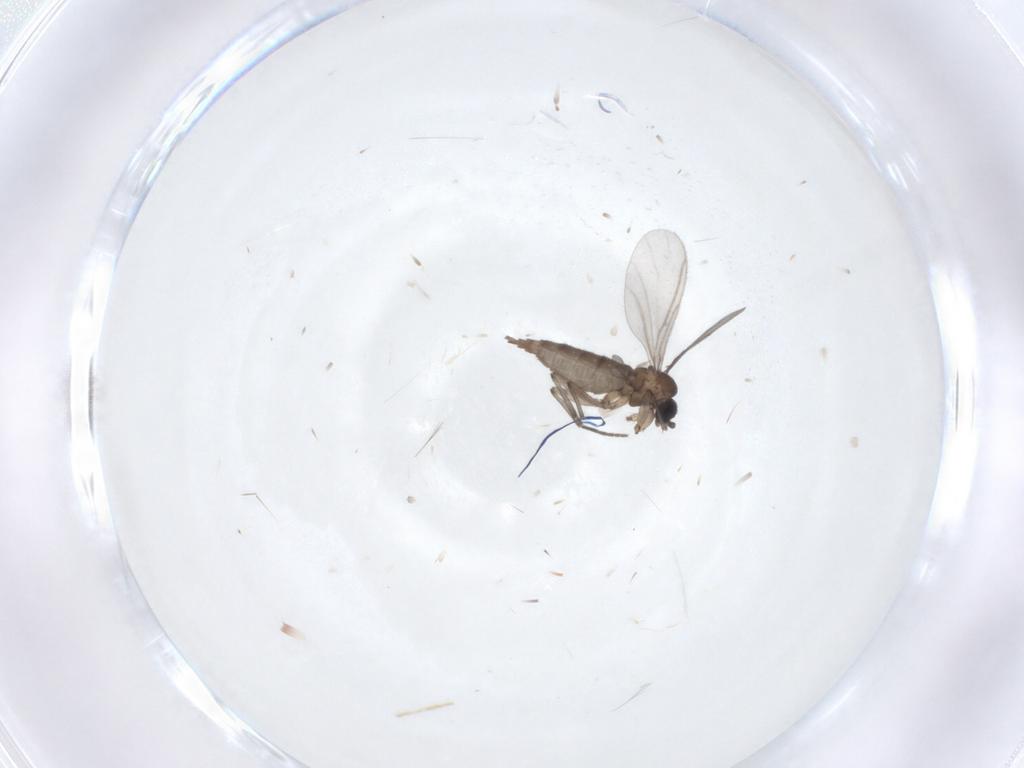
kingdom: Animalia
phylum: Arthropoda
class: Insecta
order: Diptera
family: Sciaridae
